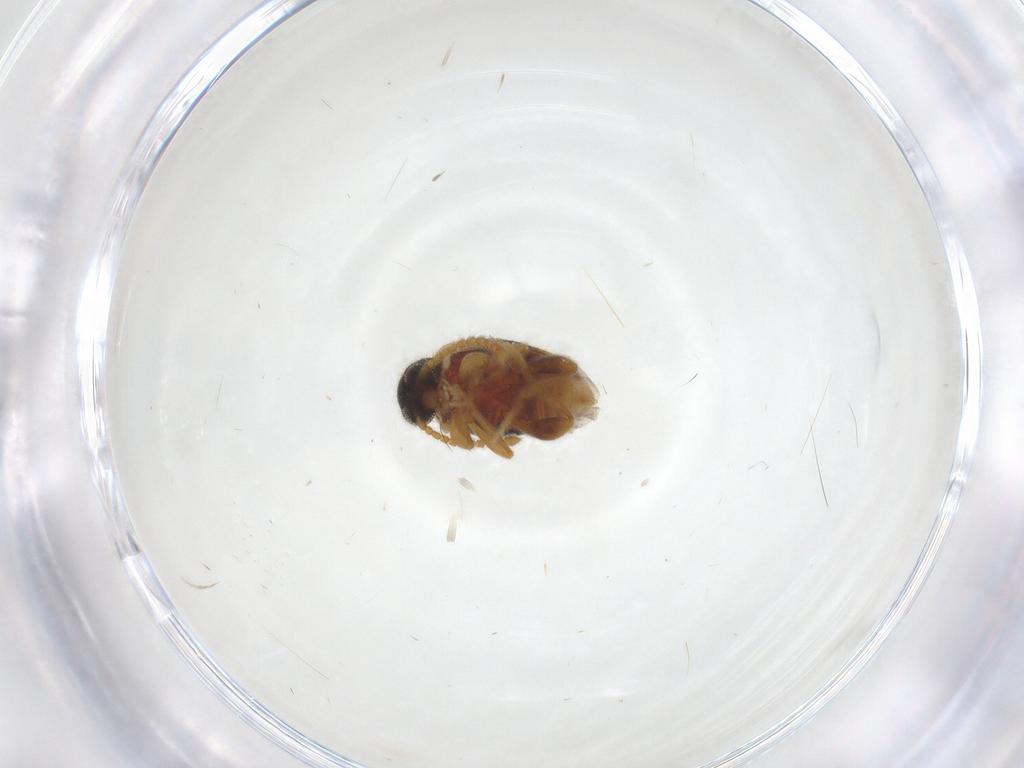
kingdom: Animalia
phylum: Arthropoda
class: Insecta
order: Coleoptera
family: Aderidae
